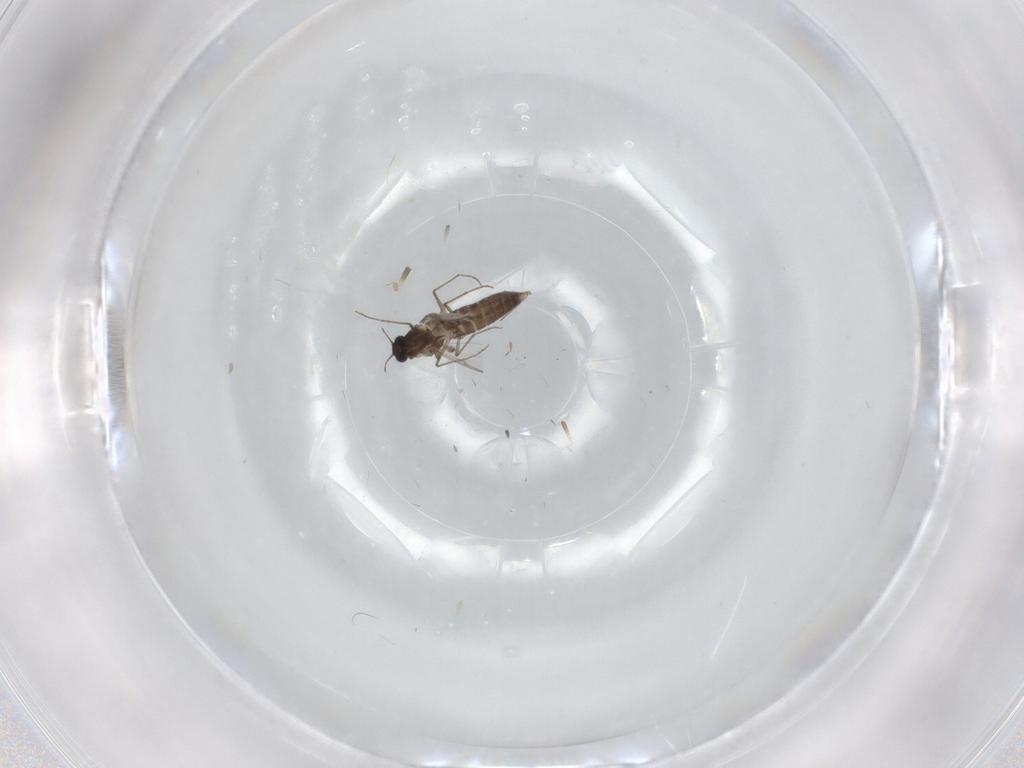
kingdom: Animalia
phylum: Arthropoda
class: Insecta
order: Diptera
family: Chironomidae
